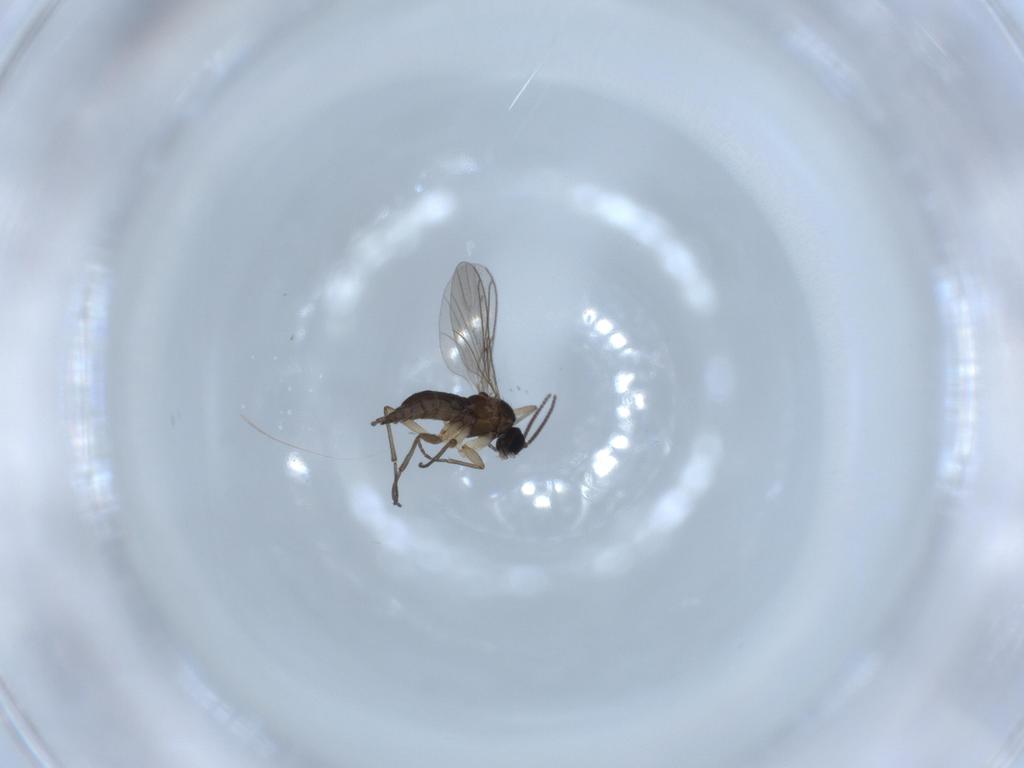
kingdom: Animalia
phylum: Arthropoda
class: Insecta
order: Diptera
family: Sciaridae
